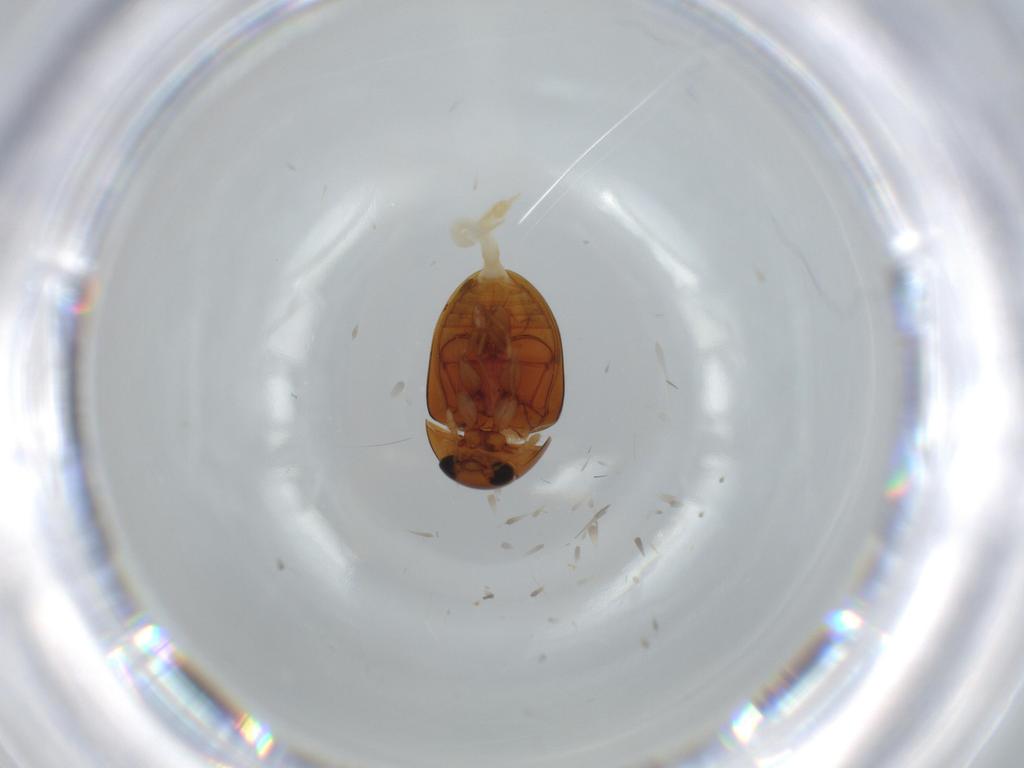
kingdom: Animalia
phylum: Arthropoda
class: Insecta
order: Coleoptera
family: Phalacridae
